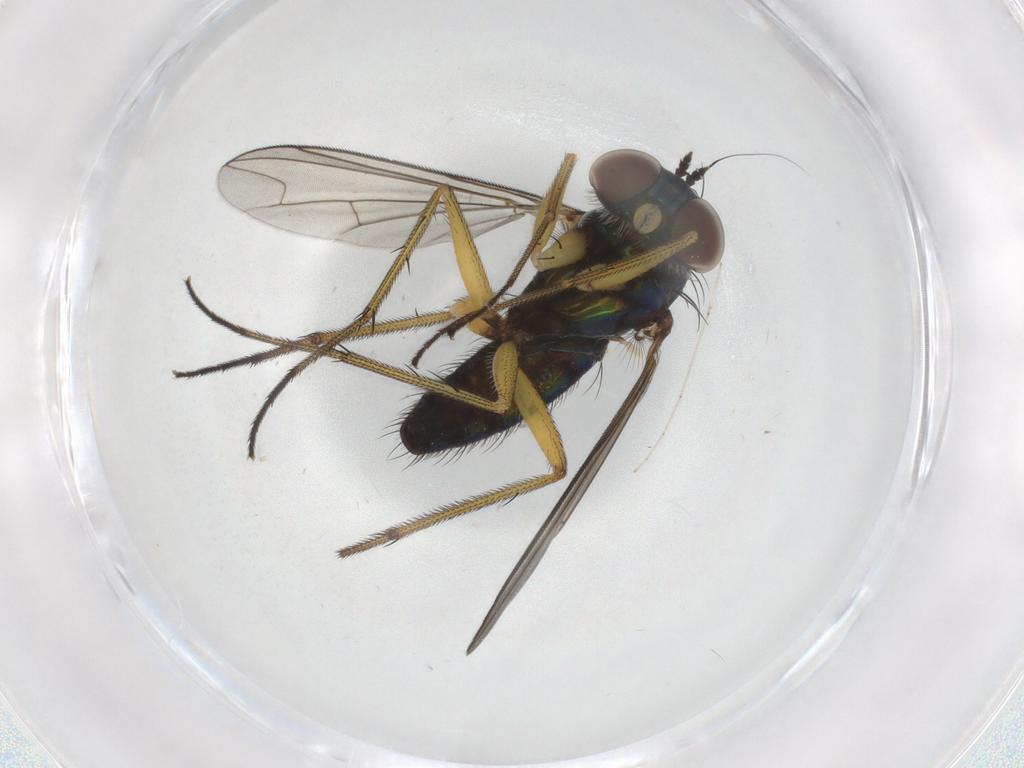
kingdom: Animalia
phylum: Arthropoda
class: Insecta
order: Diptera
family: Dolichopodidae
